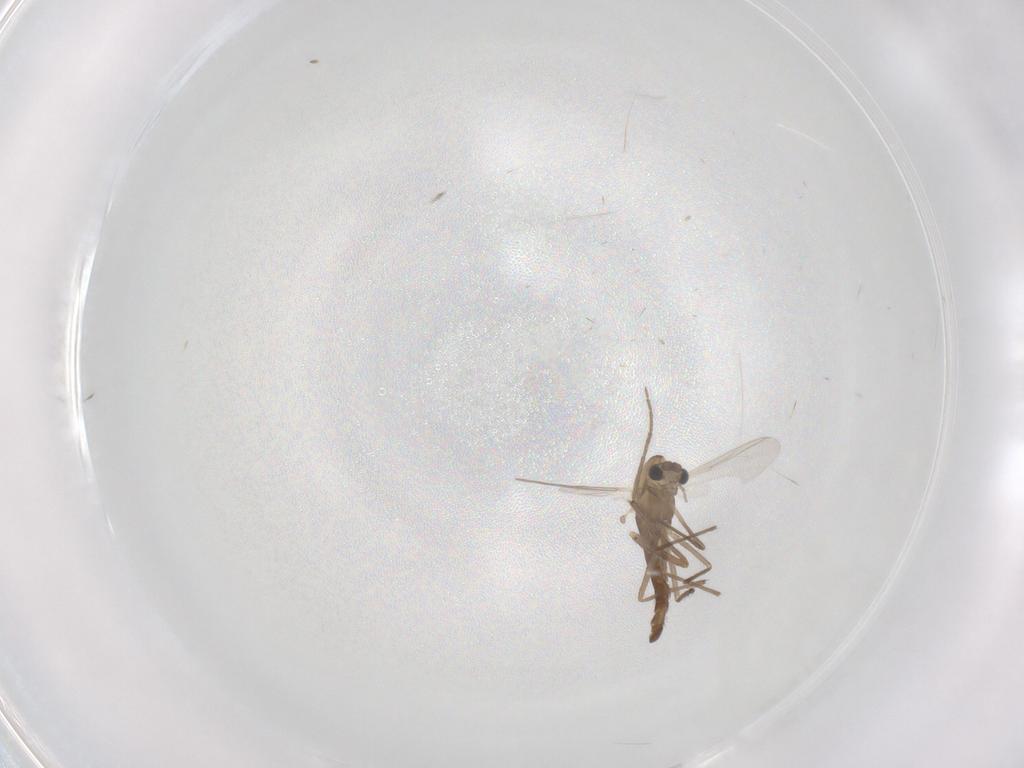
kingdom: Animalia
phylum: Arthropoda
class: Insecta
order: Diptera
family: Chironomidae
